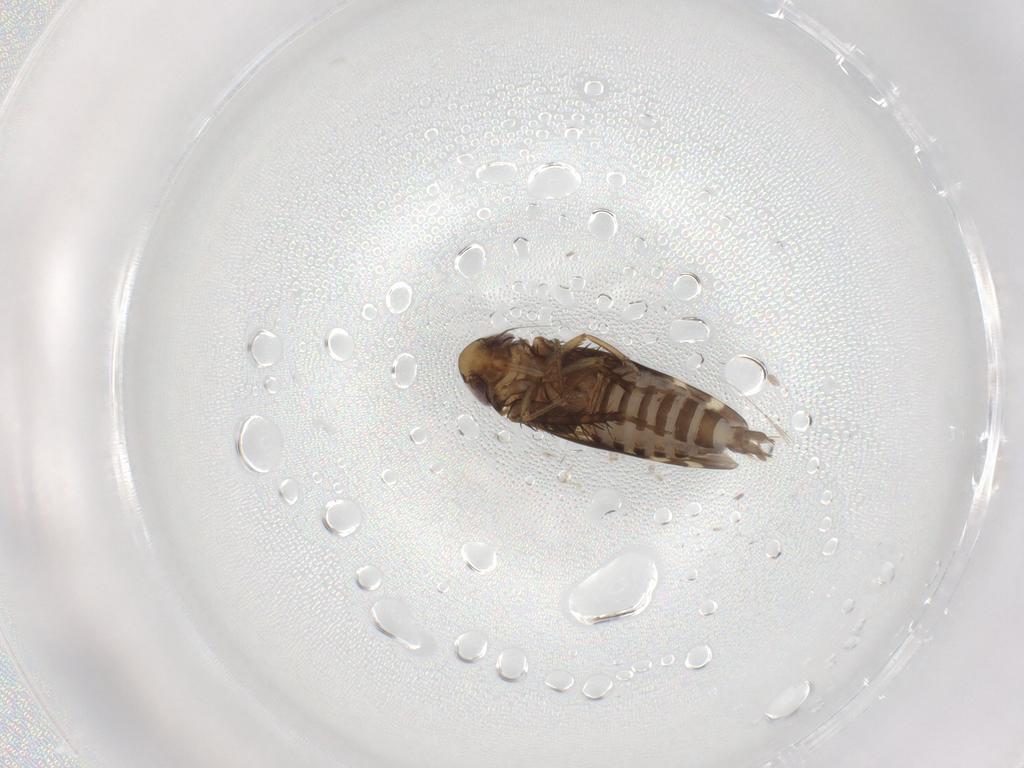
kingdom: Animalia
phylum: Arthropoda
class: Insecta
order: Hemiptera
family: Cicadellidae
